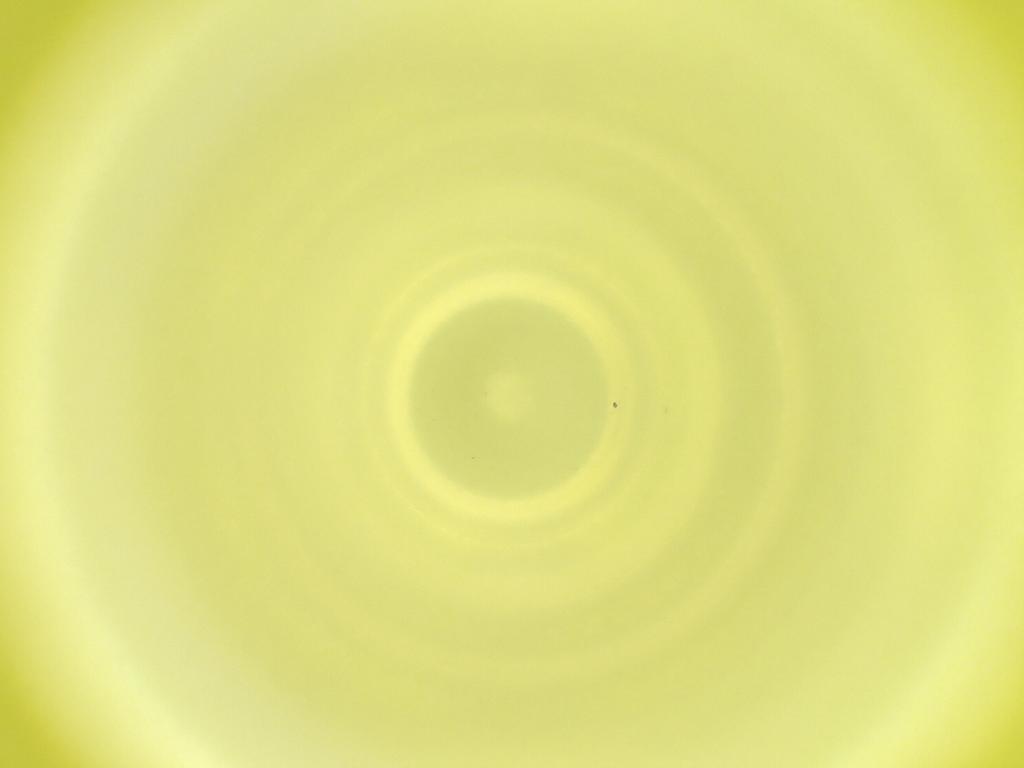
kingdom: Animalia
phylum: Arthropoda
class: Insecta
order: Diptera
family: Cecidomyiidae
